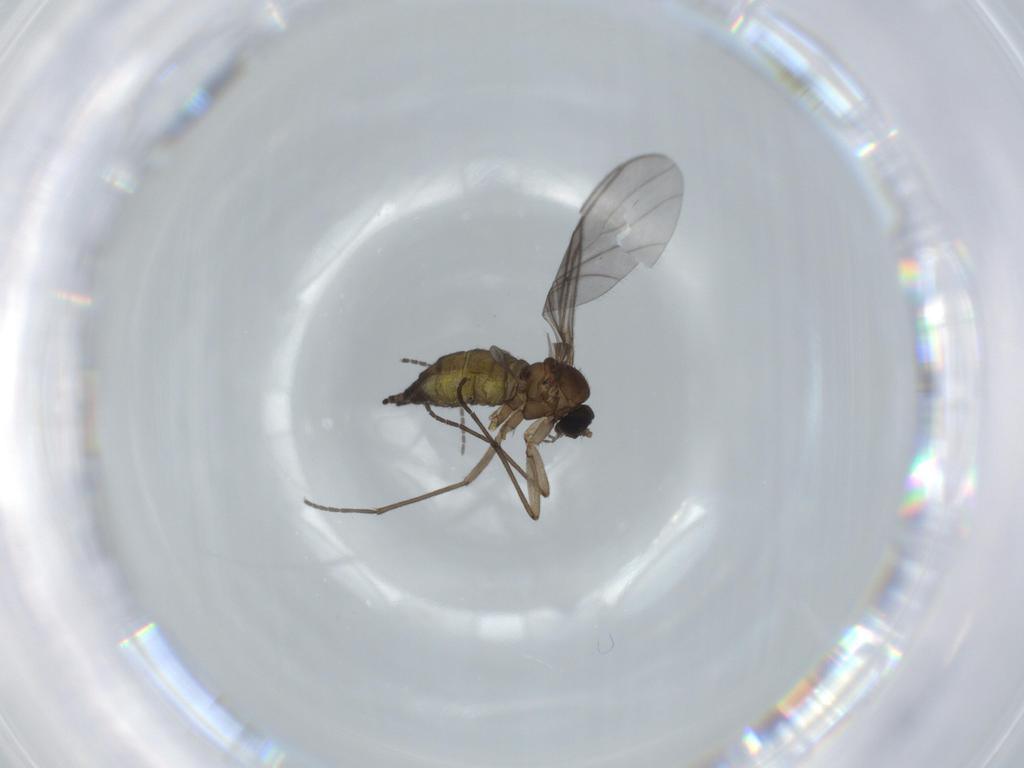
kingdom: Animalia
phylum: Arthropoda
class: Insecta
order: Diptera
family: Sciaridae
